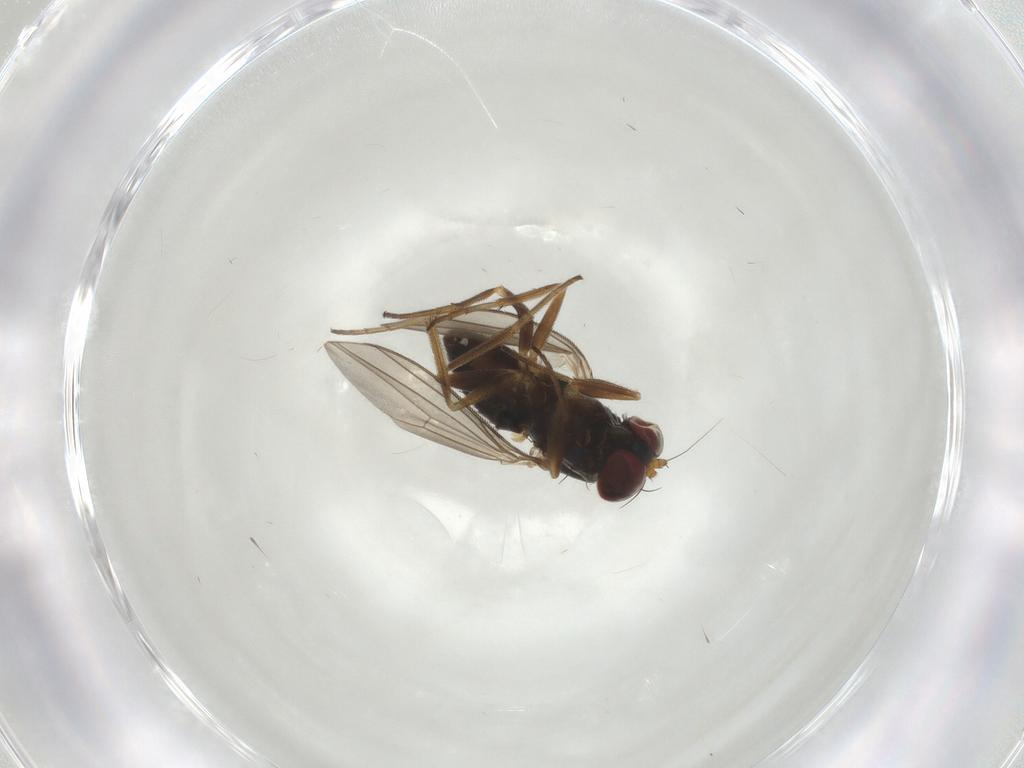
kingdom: Animalia
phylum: Arthropoda
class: Insecta
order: Diptera
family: Dolichopodidae
